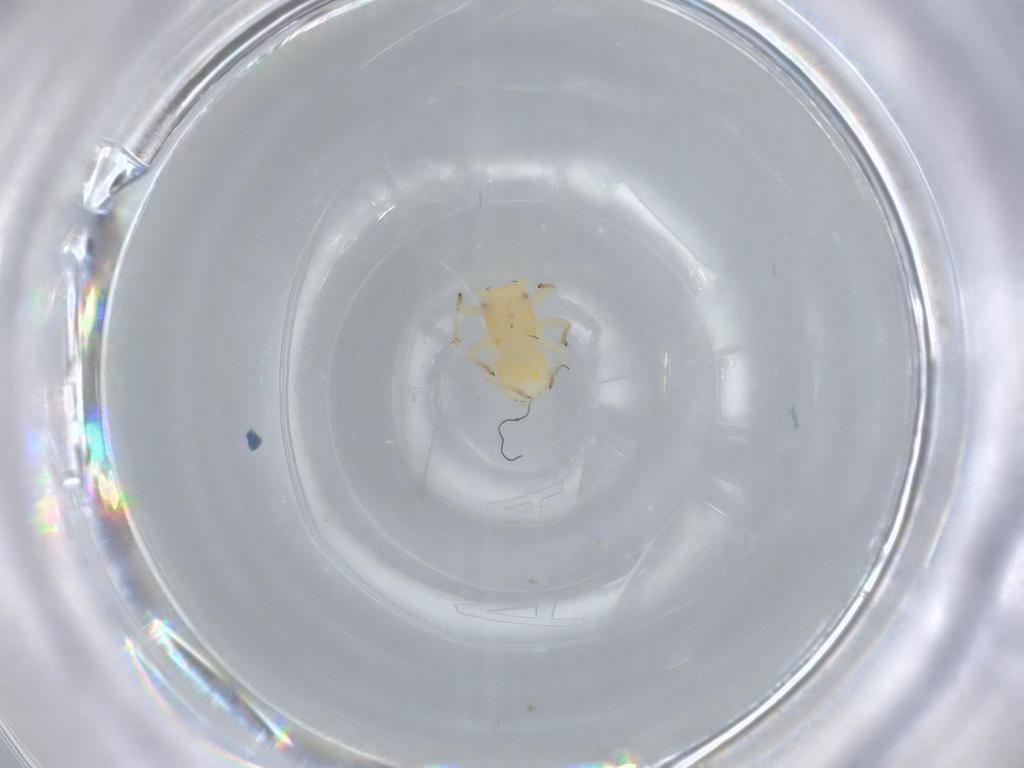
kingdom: Animalia
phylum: Arthropoda
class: Insecta
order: Hemiptera
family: Psyllidae
